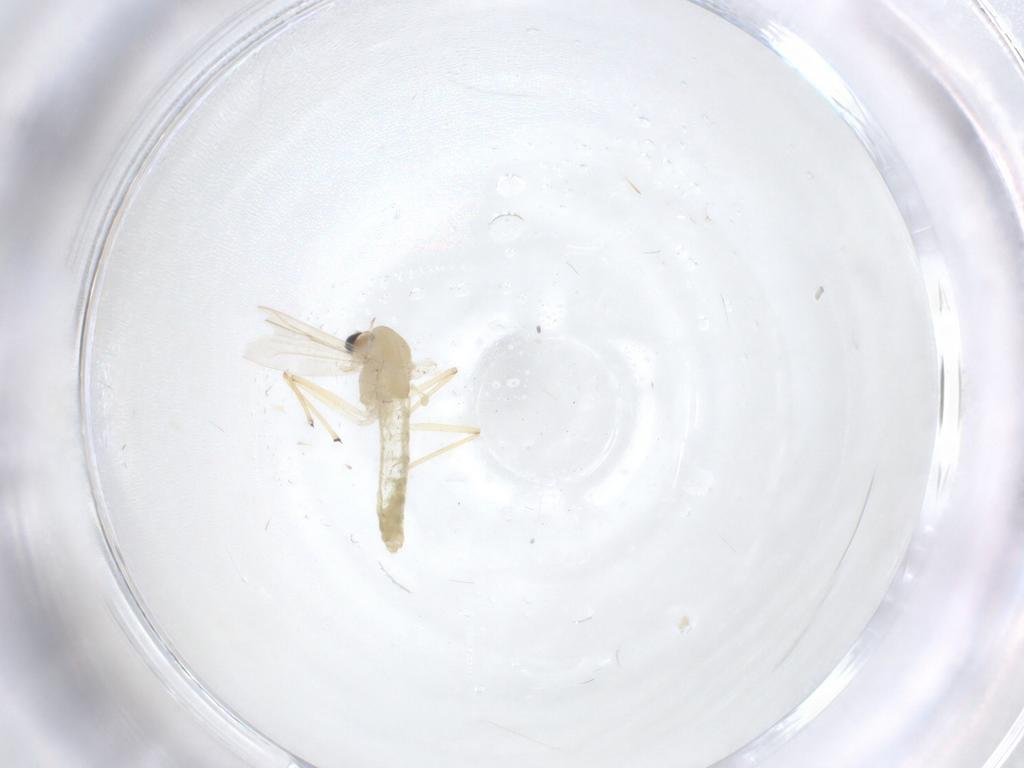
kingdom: Animalia
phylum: Arthropoda
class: Insecta
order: Diptera
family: Chironomidae
